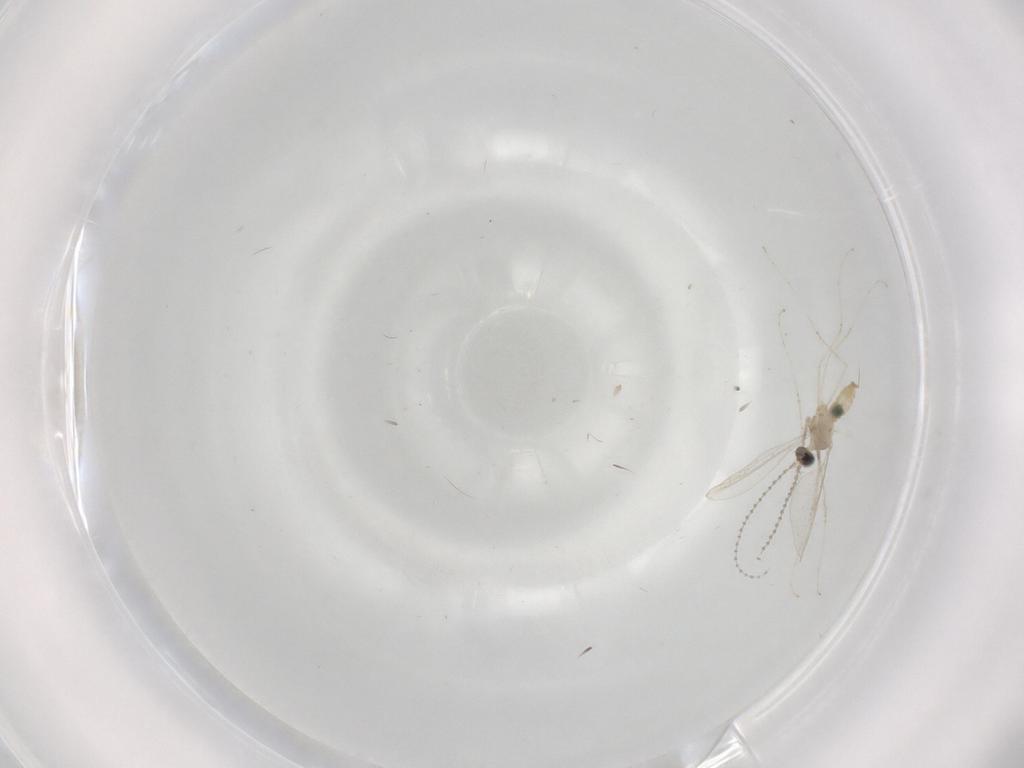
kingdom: Animalia
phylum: Arthropoda
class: Insecta
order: Diptera
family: Cecidomyiidae
